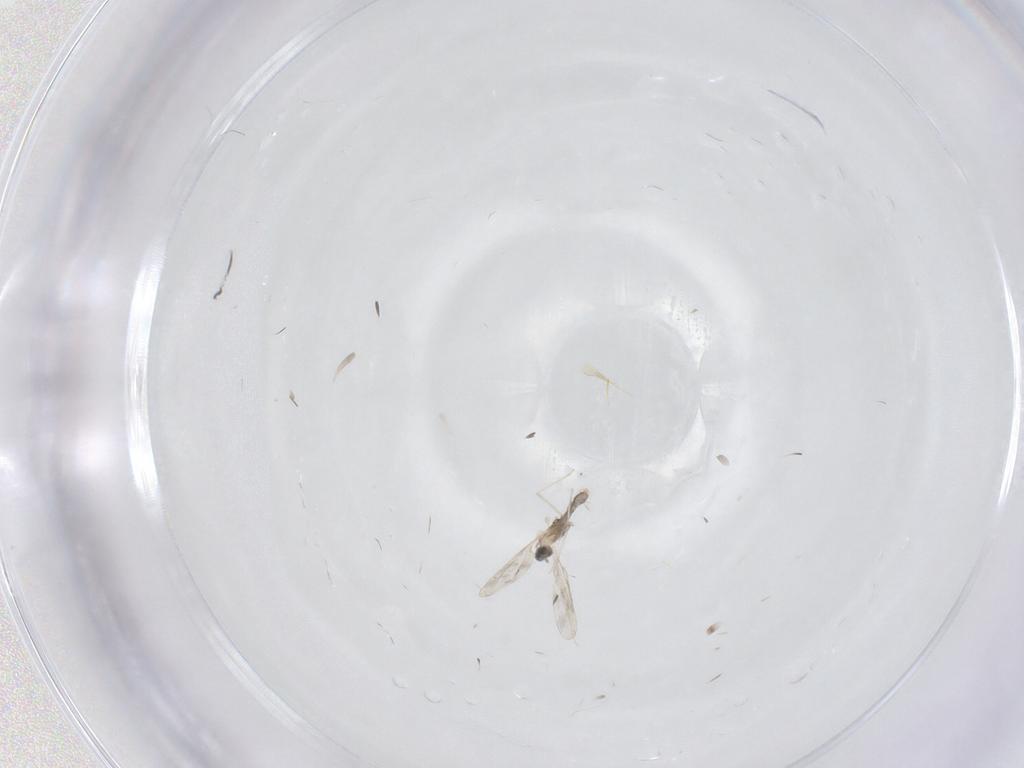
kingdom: Animalia
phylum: Arthropoda
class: Insecta
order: Diptera
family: Cecidomyiidae
